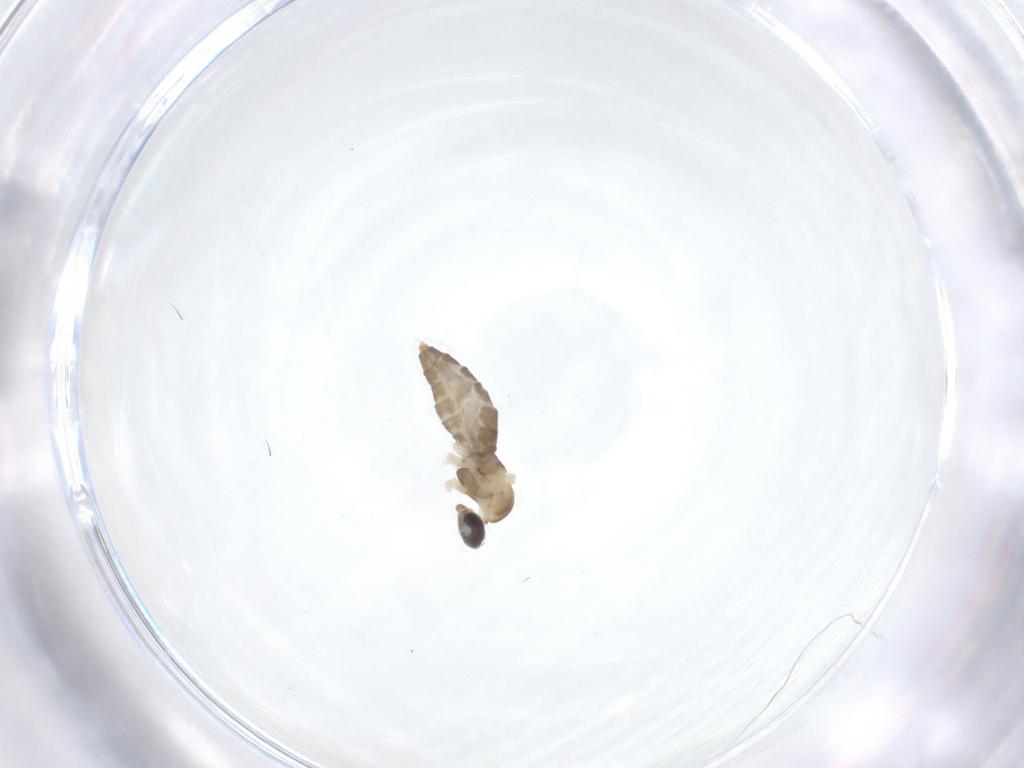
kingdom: Animalia
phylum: Arthropoda
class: Insecta
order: Diptera
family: Cecidomyiidae
